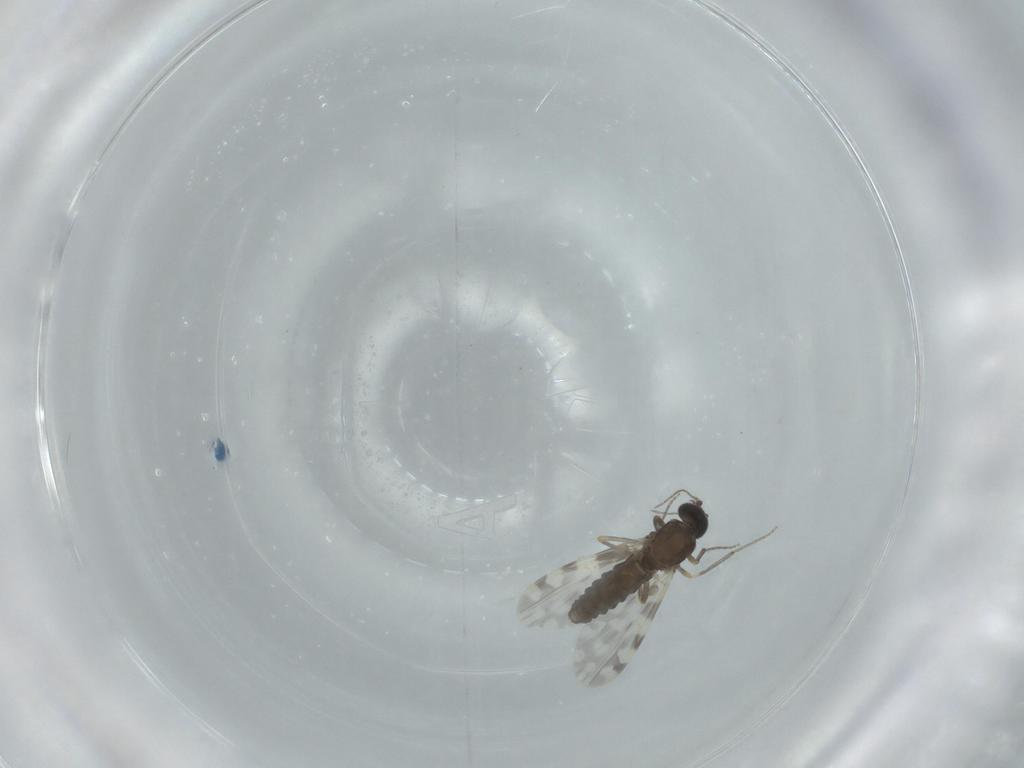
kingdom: Animalia
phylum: Arthropoda
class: Insecta
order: Diptera
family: Ceratopogonidae
